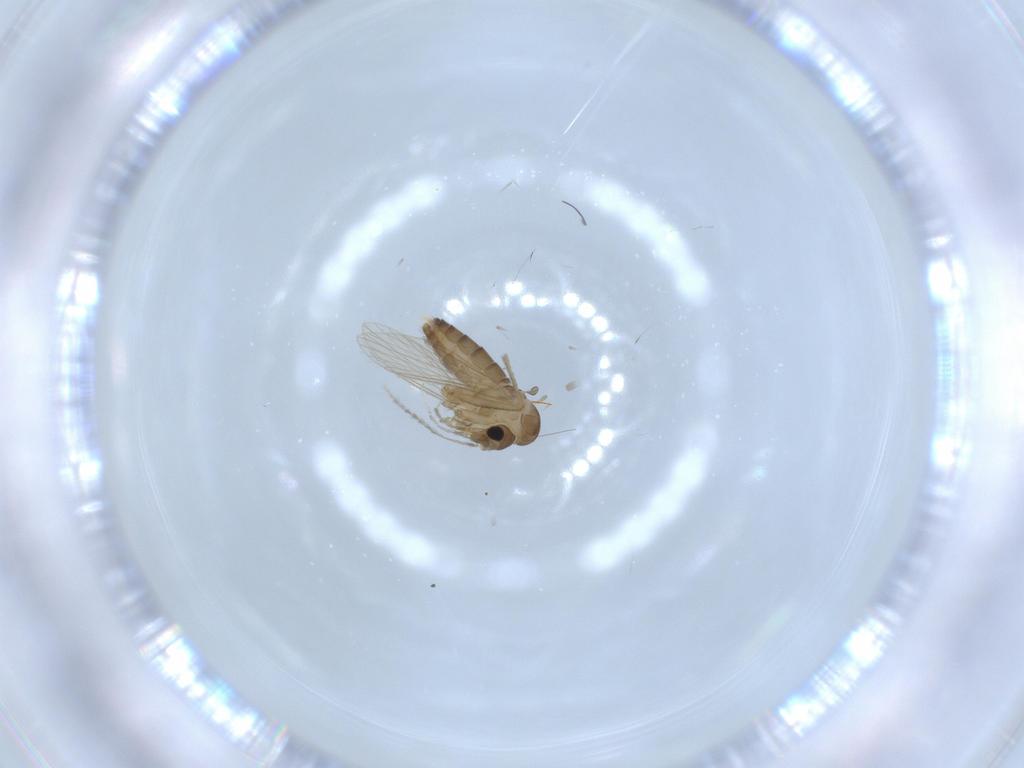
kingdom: Animalia
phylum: Arthropoda
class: Insecta
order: Diptera
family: Psychodidae
